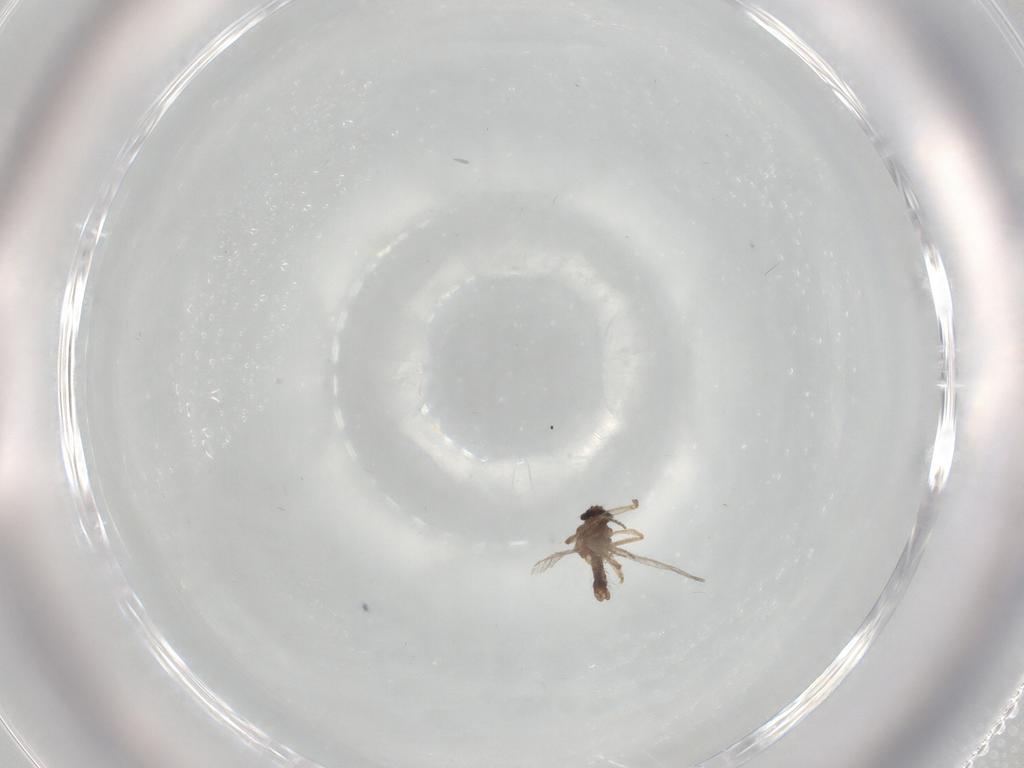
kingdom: Animalia
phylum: Arthropoda
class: Insecta
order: Diptera
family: Ceratopogonidae
